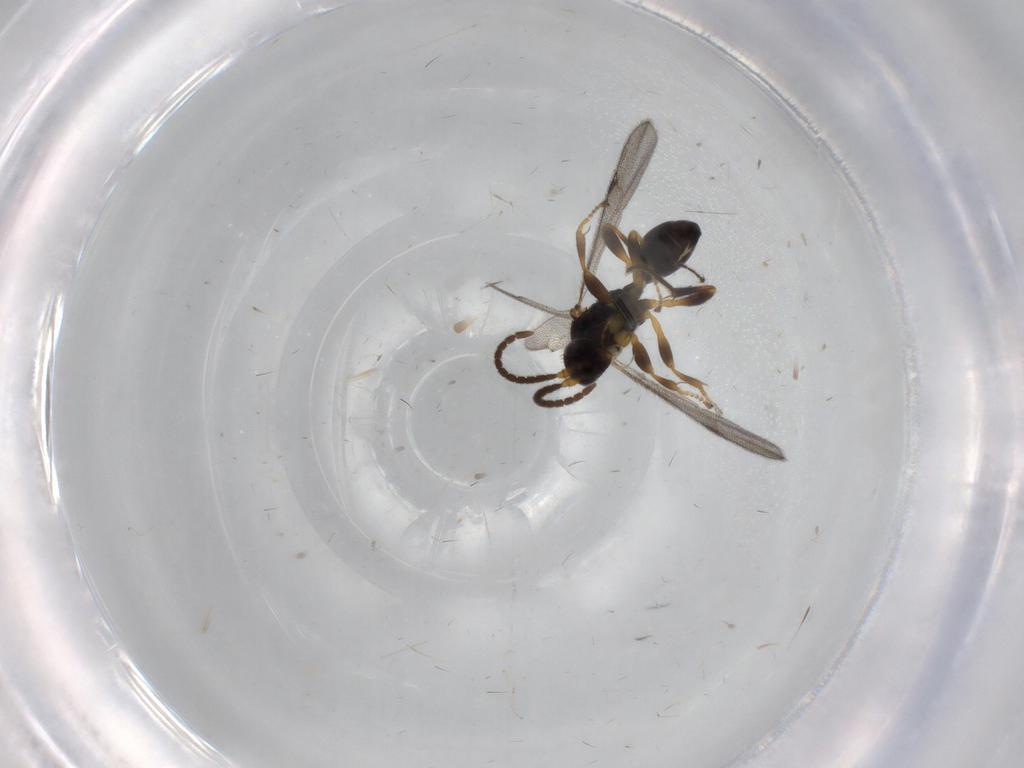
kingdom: Animalia
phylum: Arthropoda
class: Insecta
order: Hymenoptera
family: Proctotrupidae
